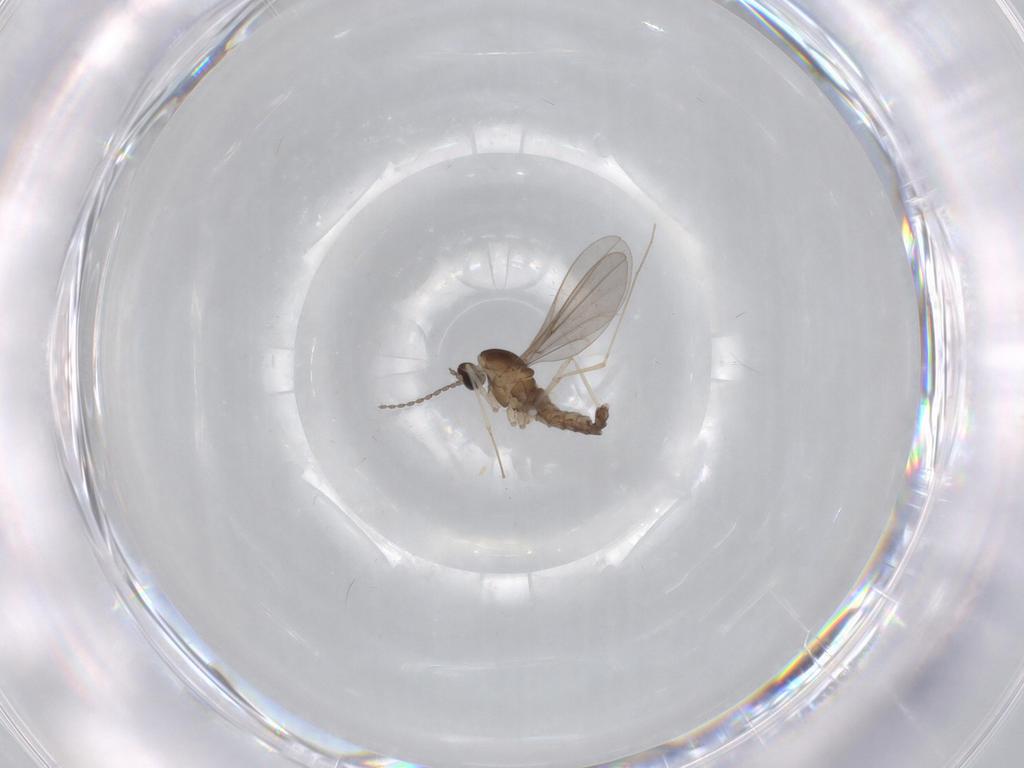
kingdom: Animalia
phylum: Arthropoda
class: Insecta
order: Diptera
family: Cecidomyiidae
